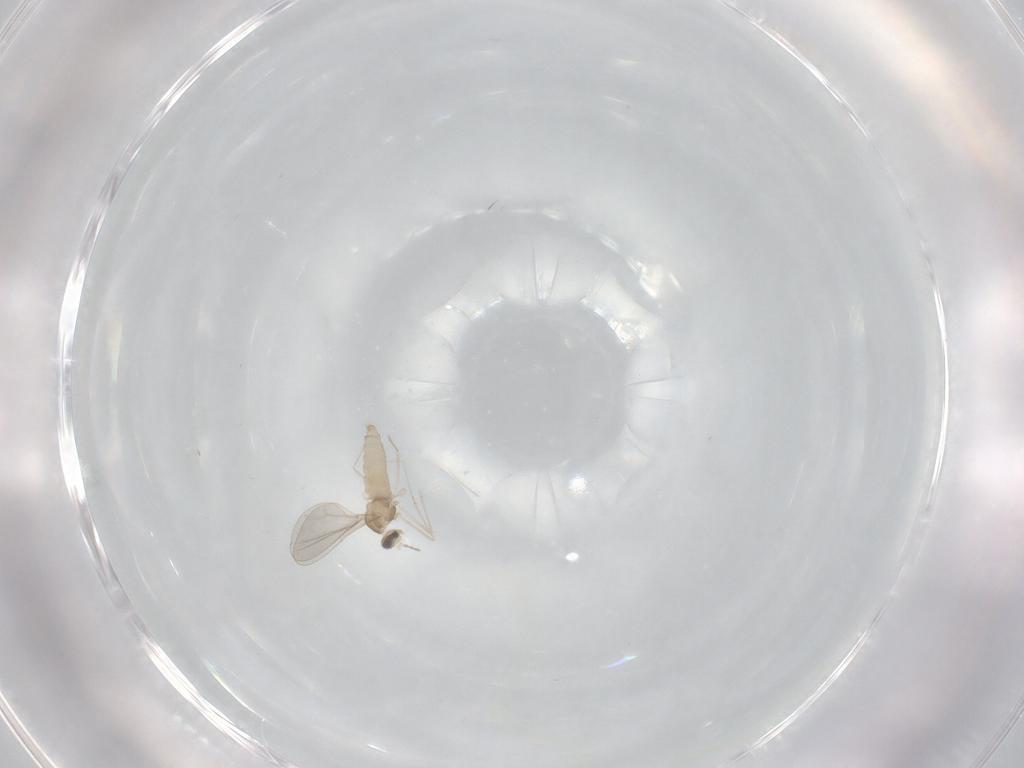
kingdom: Animalia
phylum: Arthropoda
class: Insecta
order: Diptera
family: Cecidomyiidae
